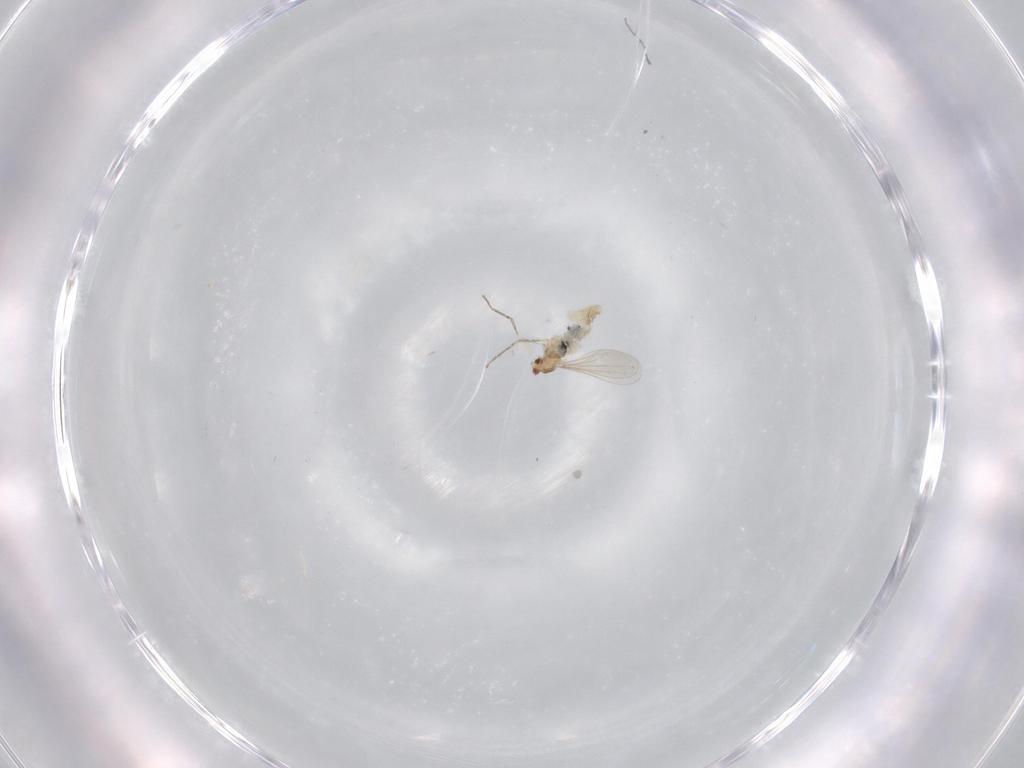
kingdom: Animalia
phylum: Arthropoda
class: Insecta
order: Diptera
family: Cecidomyiidae
